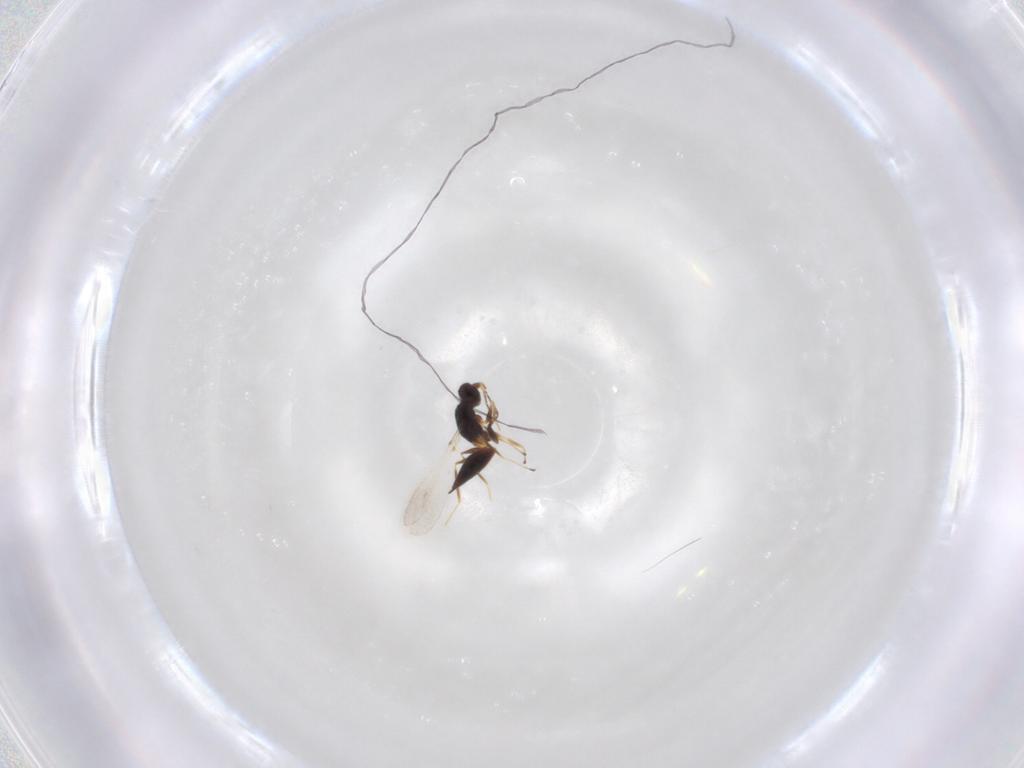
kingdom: Animalia
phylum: Arthropoda
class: Insecta
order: Hymenoptera
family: Mymaridae
